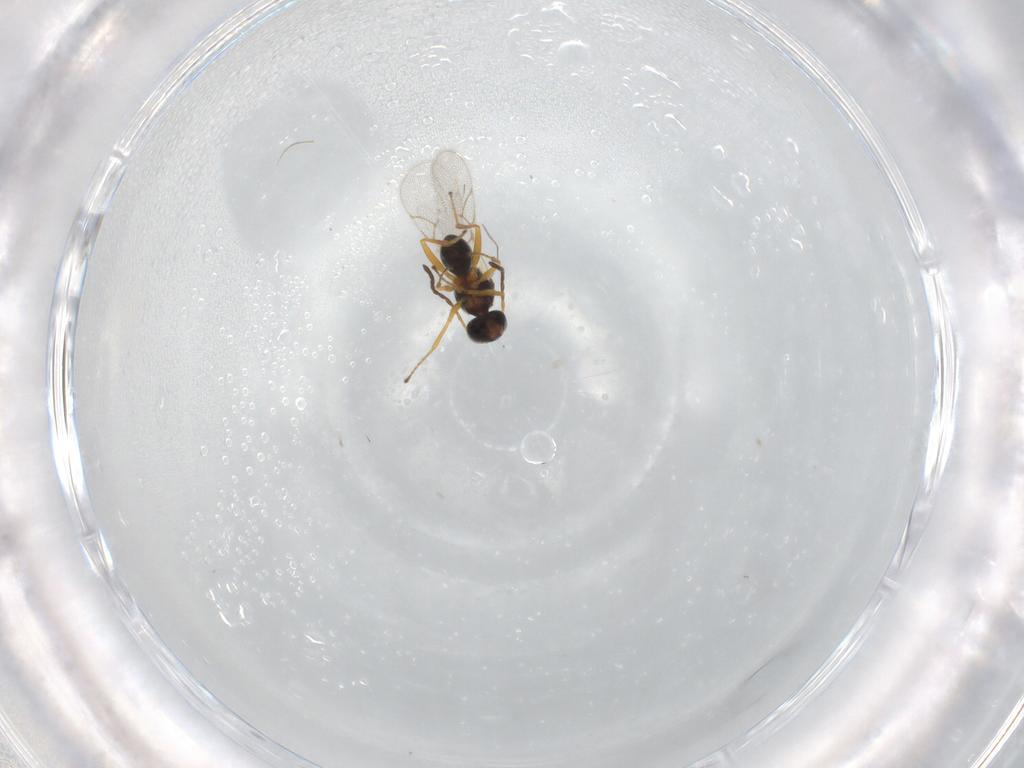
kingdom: Animalia
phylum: Arthropoda
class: Insecta
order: Hymenoptera
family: Figitidae
